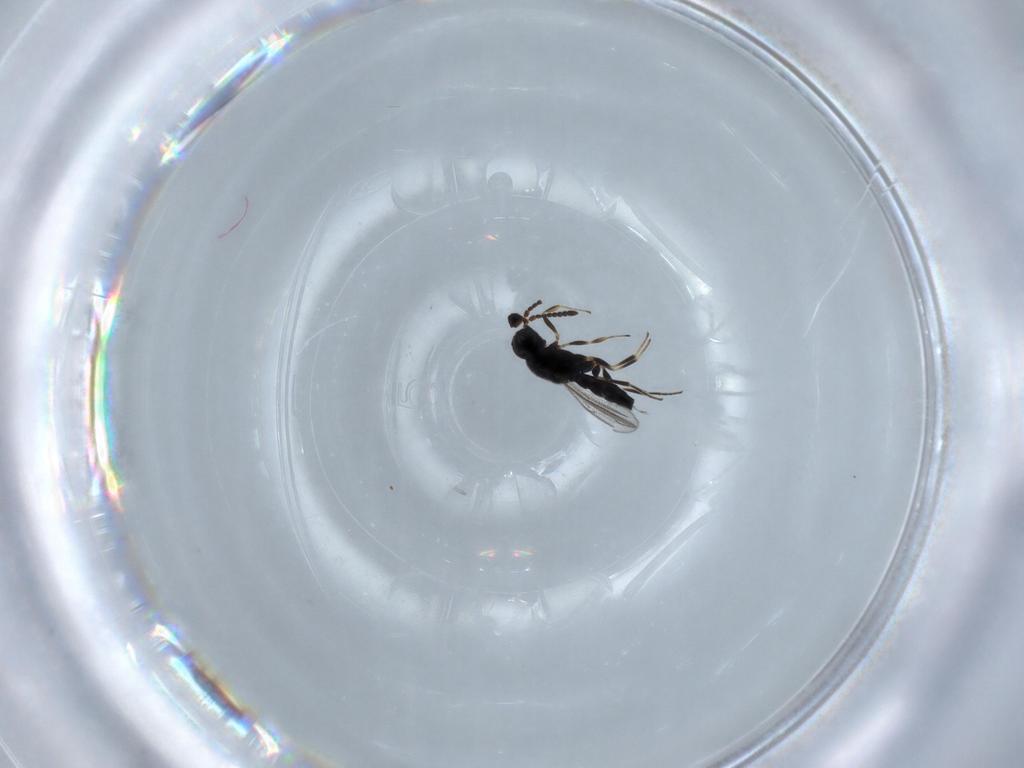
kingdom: Animalia
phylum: Arthropoda
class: Insecta
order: Hymenoptera
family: Scelionidae
